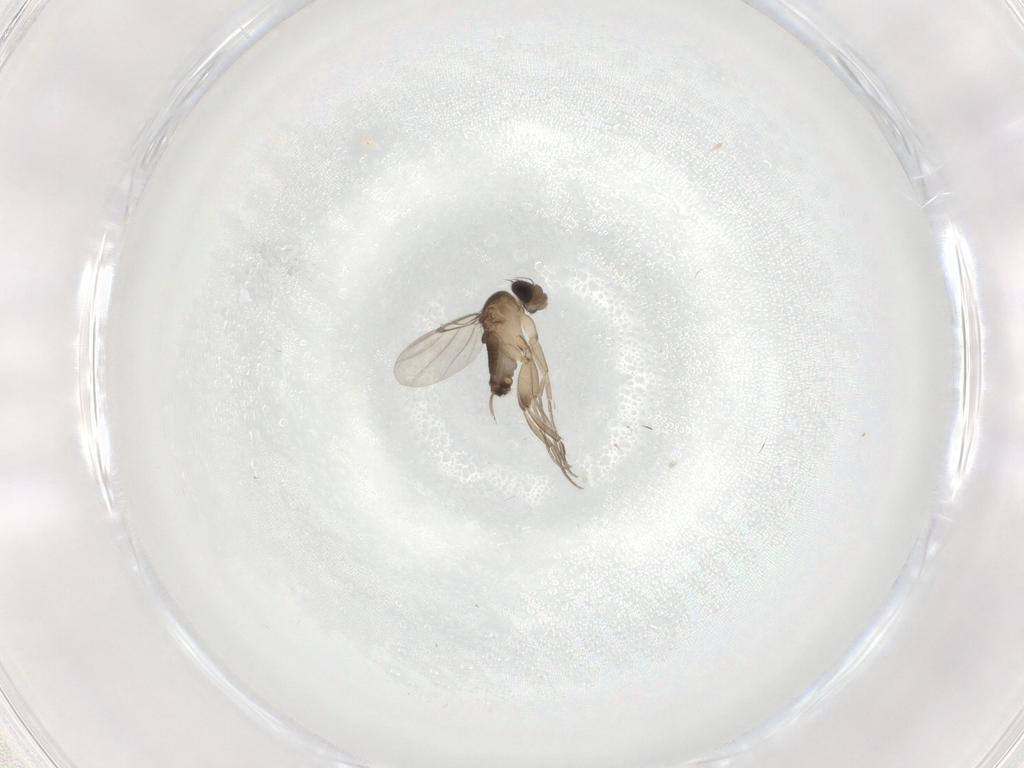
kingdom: Animalia
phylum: Arthropoda
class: Insecta
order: Diptera
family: Phoridae
